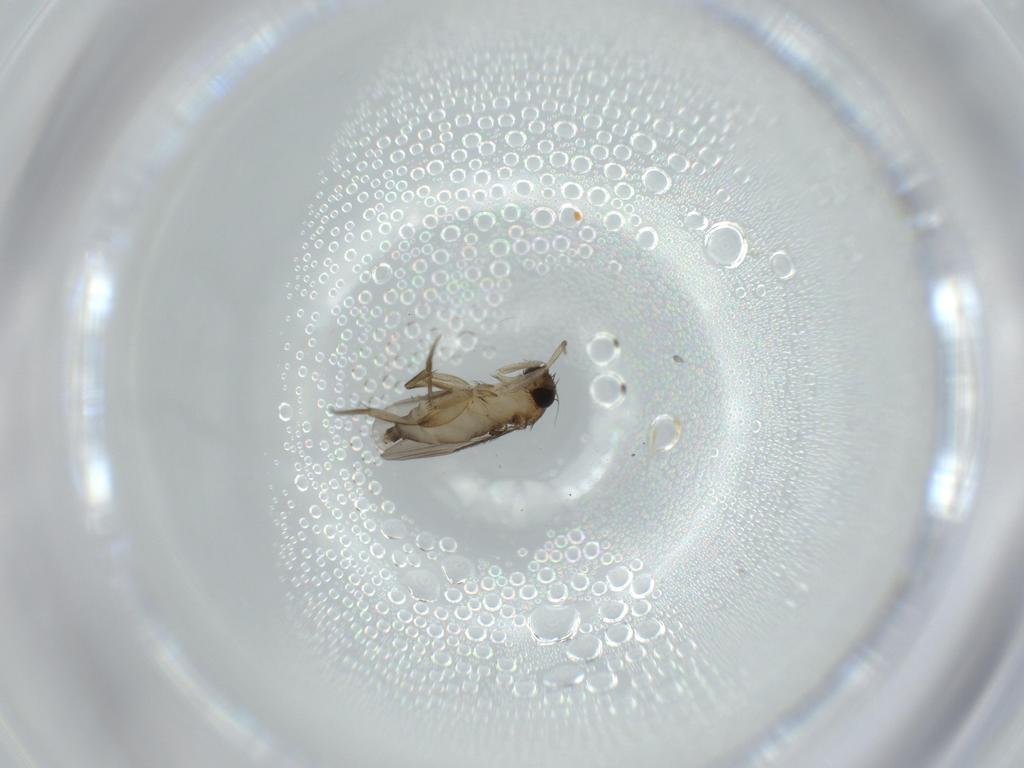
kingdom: Animalia
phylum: Arthropoda
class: Insecta
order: Diptera
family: Phoridae
